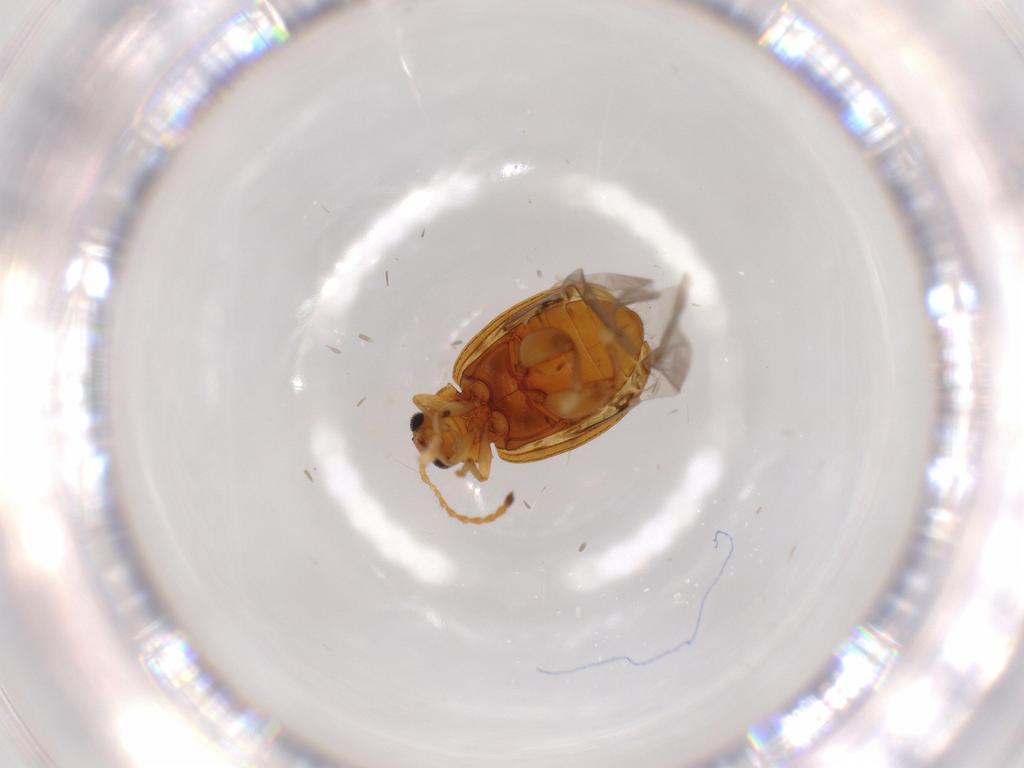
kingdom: Animalia
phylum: Arthropoda
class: Insecta
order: Coleoptera
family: Chrysomelidae
